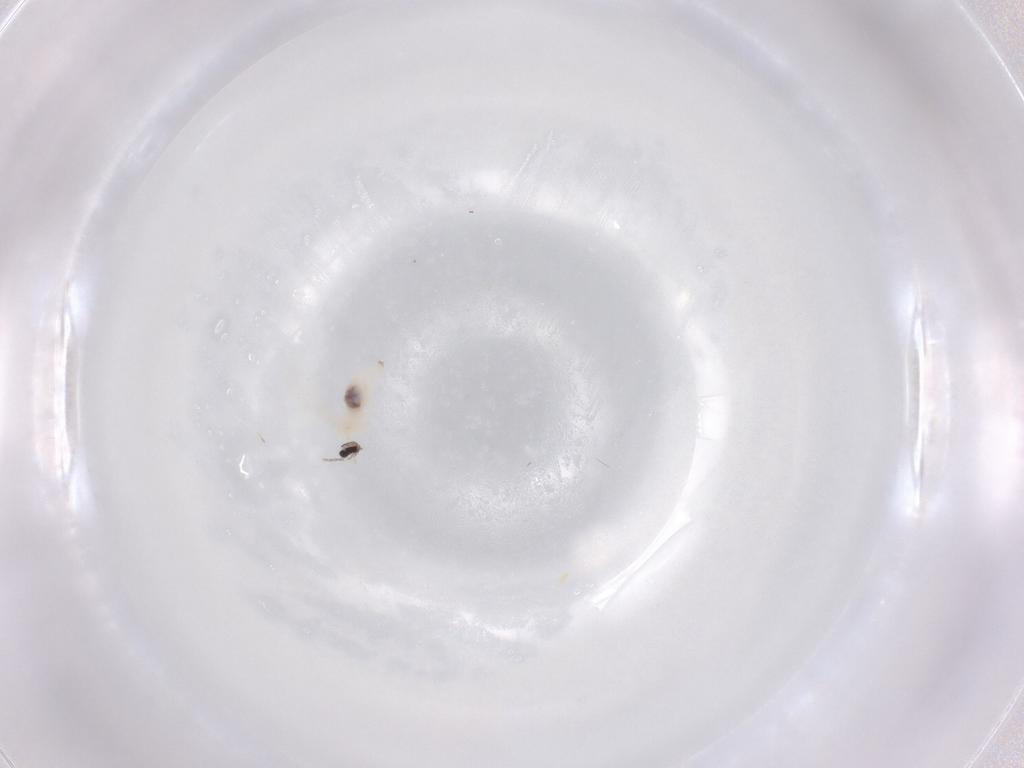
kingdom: Animalia
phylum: Arthropoda
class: Insecta
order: Diptera
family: Cecidomyiidae
